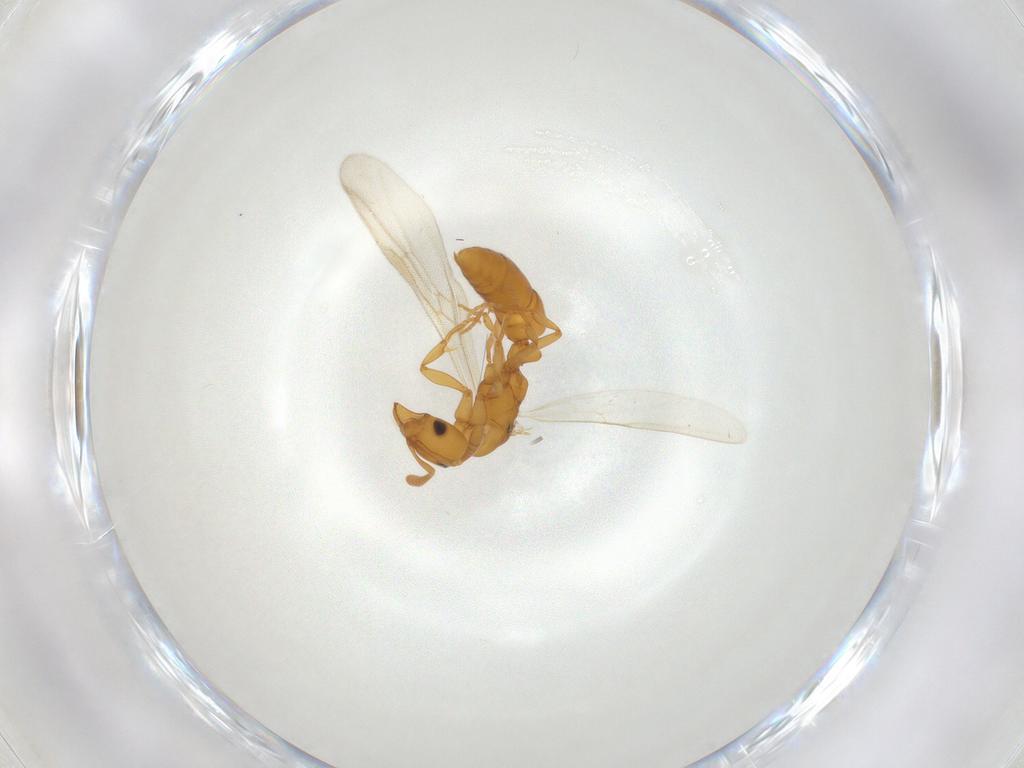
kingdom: Animalia
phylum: Arthropoda
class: Insecta
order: Hymenoptera
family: Formicidae
